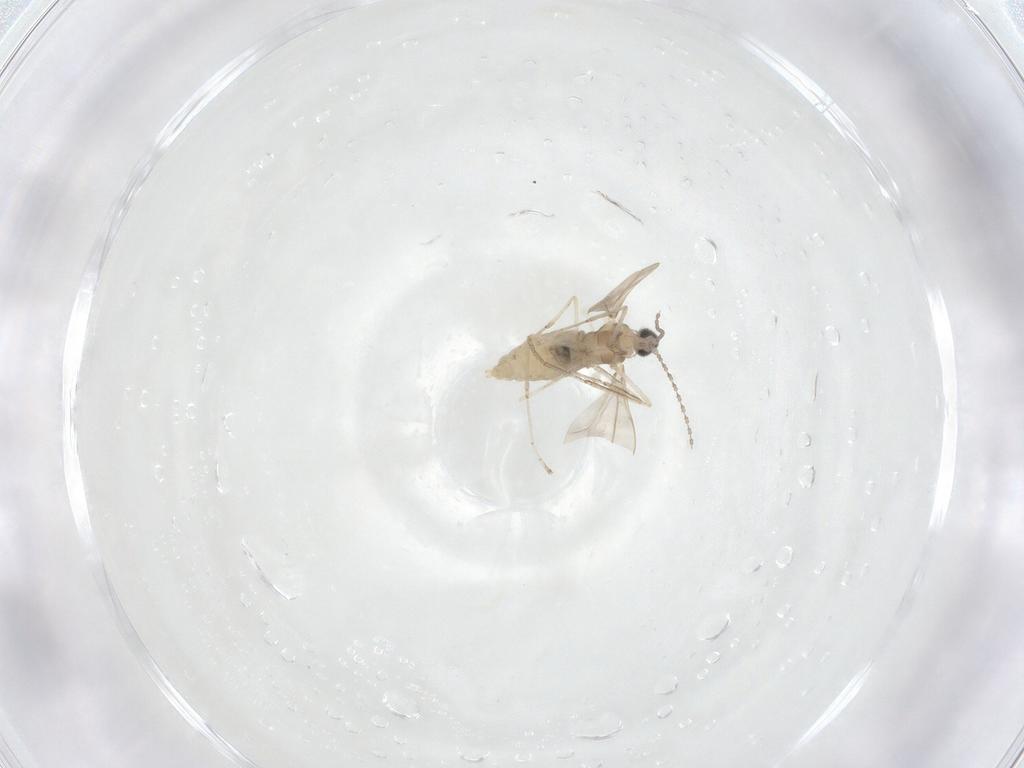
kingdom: Animalia
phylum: Arthropoda
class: Insecta
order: Diptera
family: Cecidomyiidae
